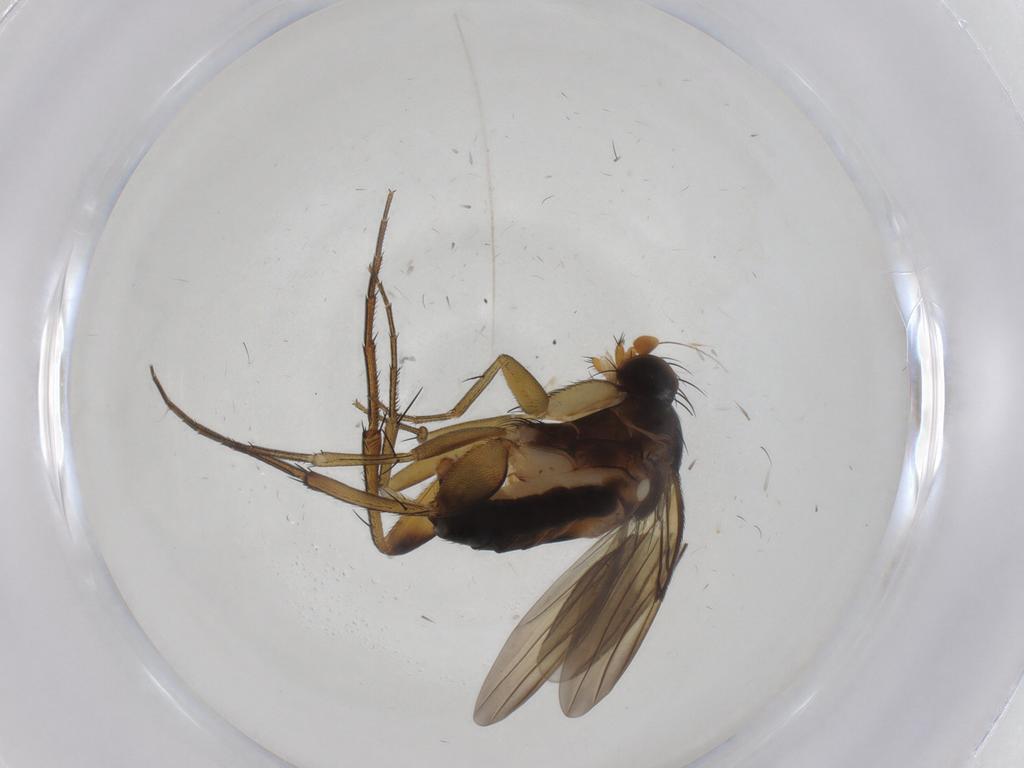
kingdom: Animalia
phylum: Arthropoda
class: Insecta
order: Diptera
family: Phoridae
